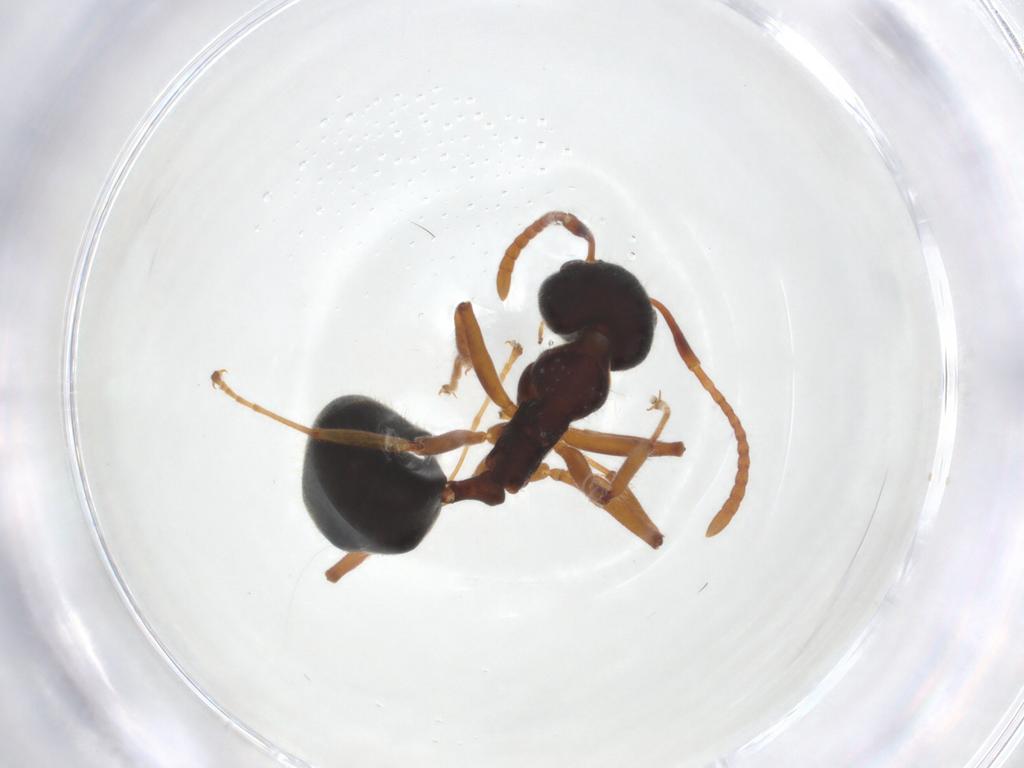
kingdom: Animalia
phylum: Arthropoda
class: Insecta
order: Hymenoptera
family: Formicidae
